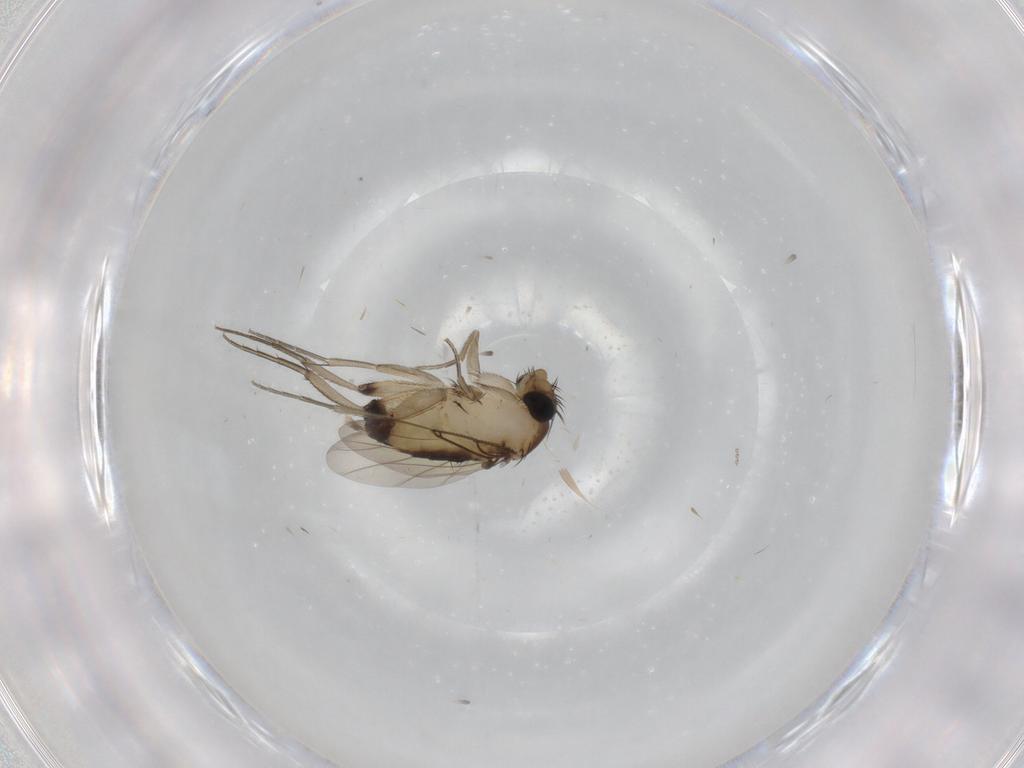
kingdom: Animalia
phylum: Arthropoda
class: Insecta
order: Diptera
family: Phoridae
